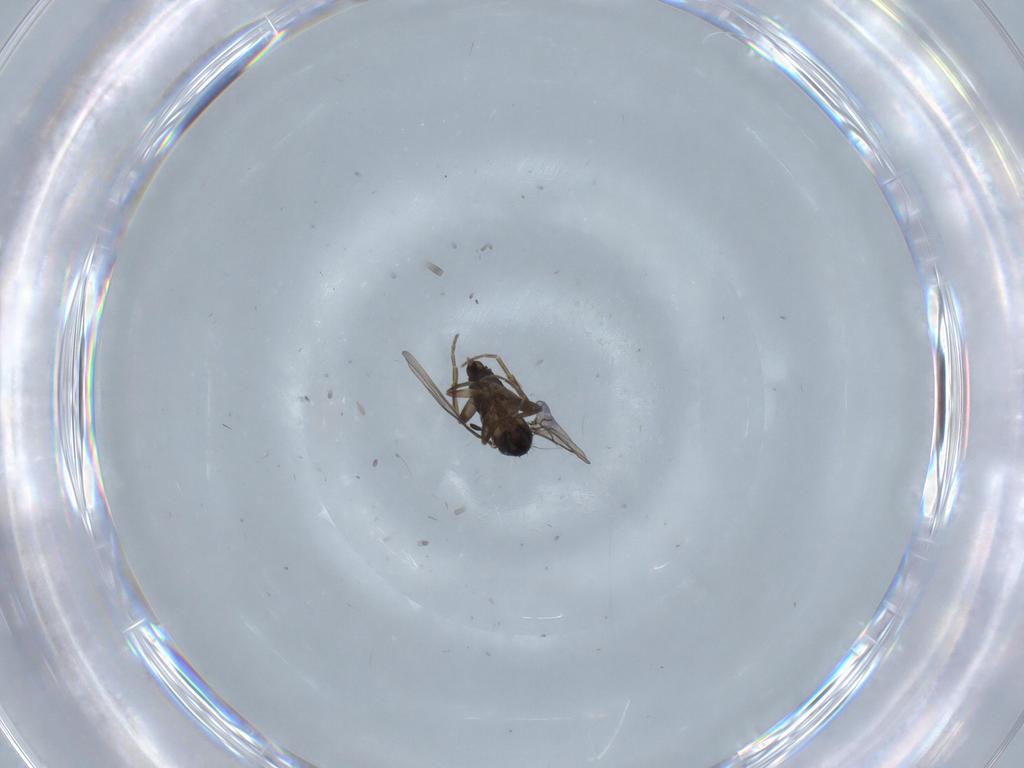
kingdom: Animalia
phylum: Arthropoda
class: Insecta
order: Diptera
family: Phoridae
